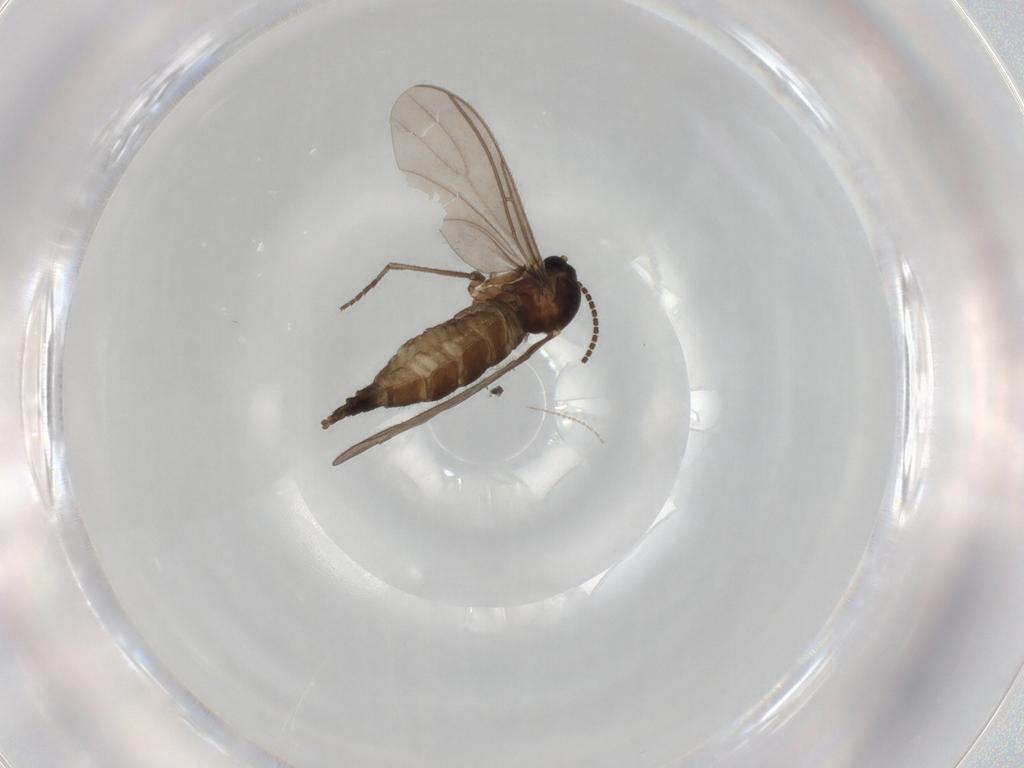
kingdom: Animalia
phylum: Arthropoda
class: Insecta
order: Diptera
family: Sciaridae
